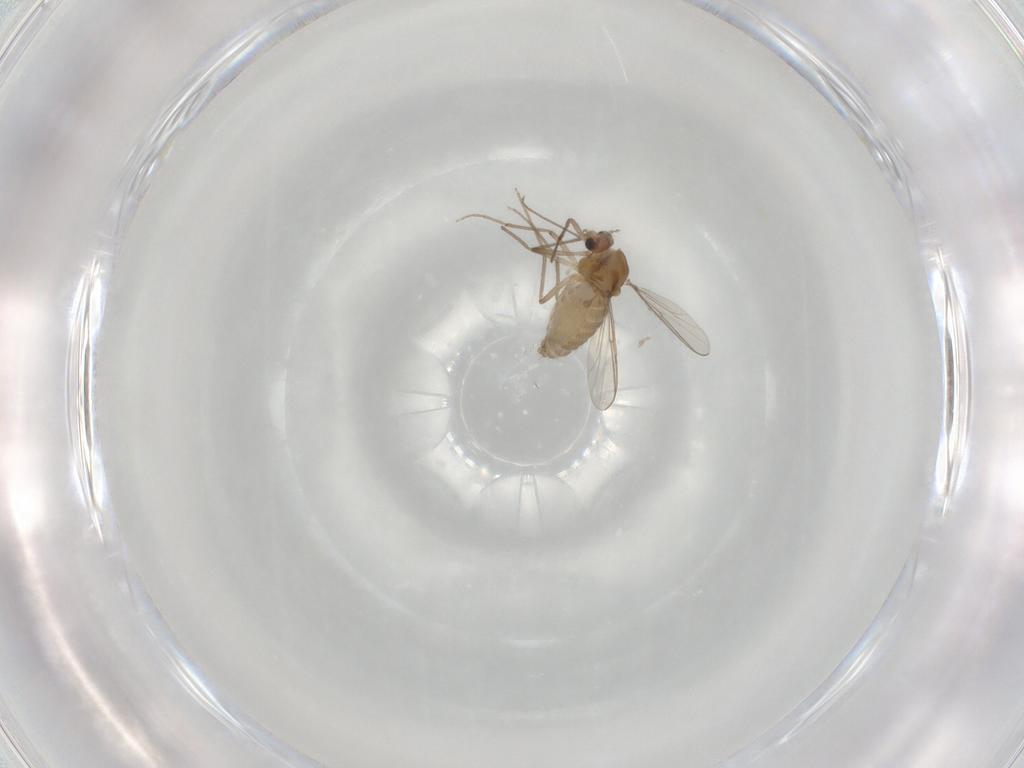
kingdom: Animalia
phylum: Arthropoda
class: Insecta
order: Diptera
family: Chironomidae
